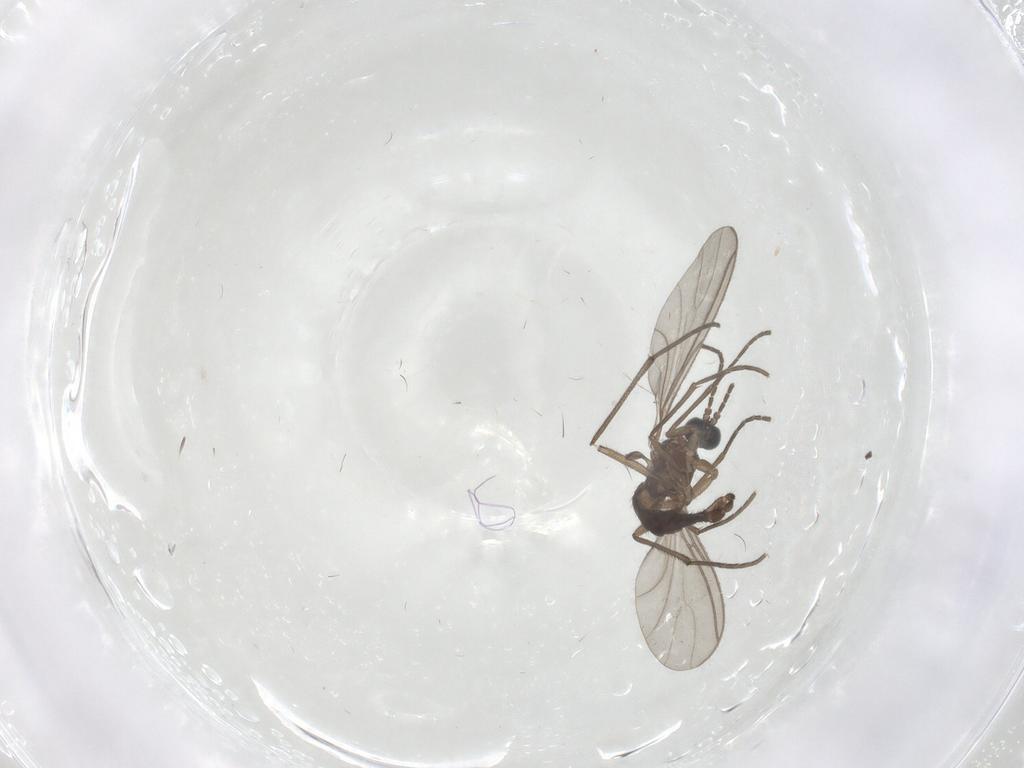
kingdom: Animalia
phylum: Arthropoda
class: Insecta
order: Diptera
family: Sciaridae
